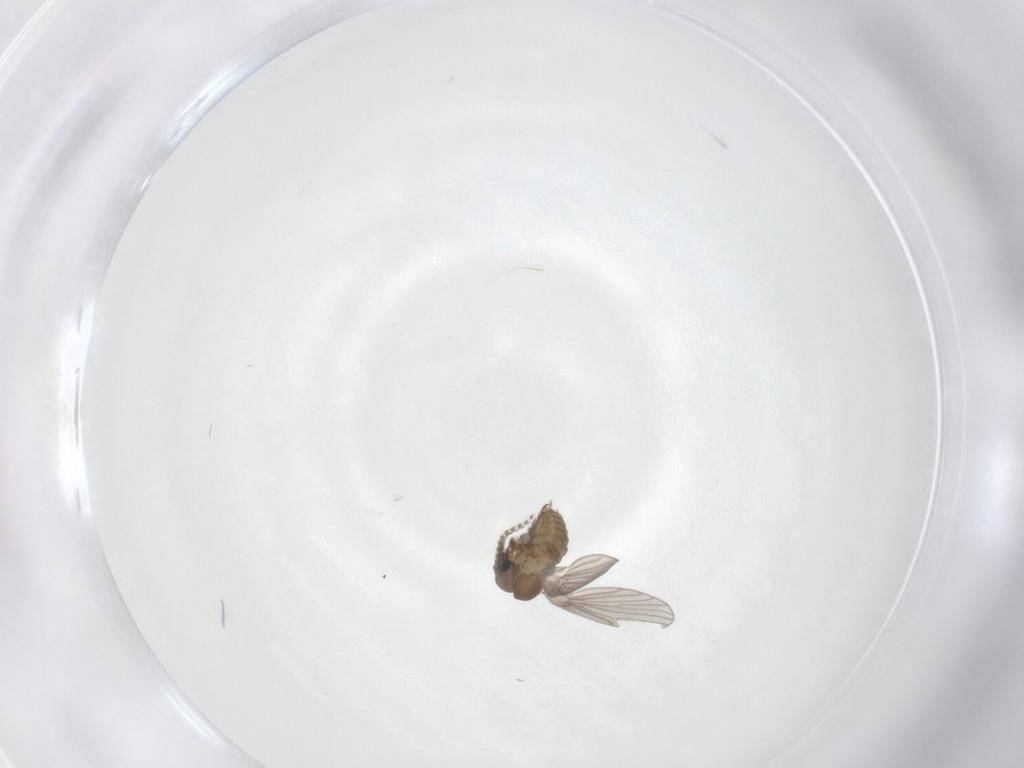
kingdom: Animalia
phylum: Arthropoda
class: Insecta
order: Diptera
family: Psychodidae
